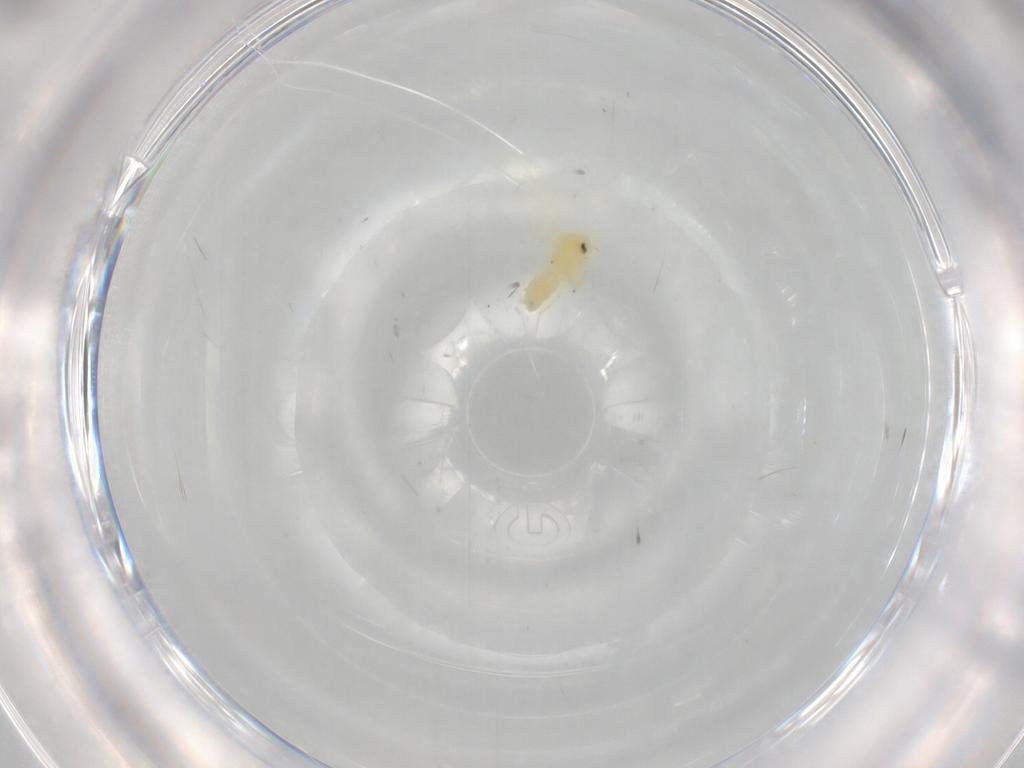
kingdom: Animalia
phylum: Arthropoda
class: Insecta
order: Hemiptera
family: Aleyrodidae
